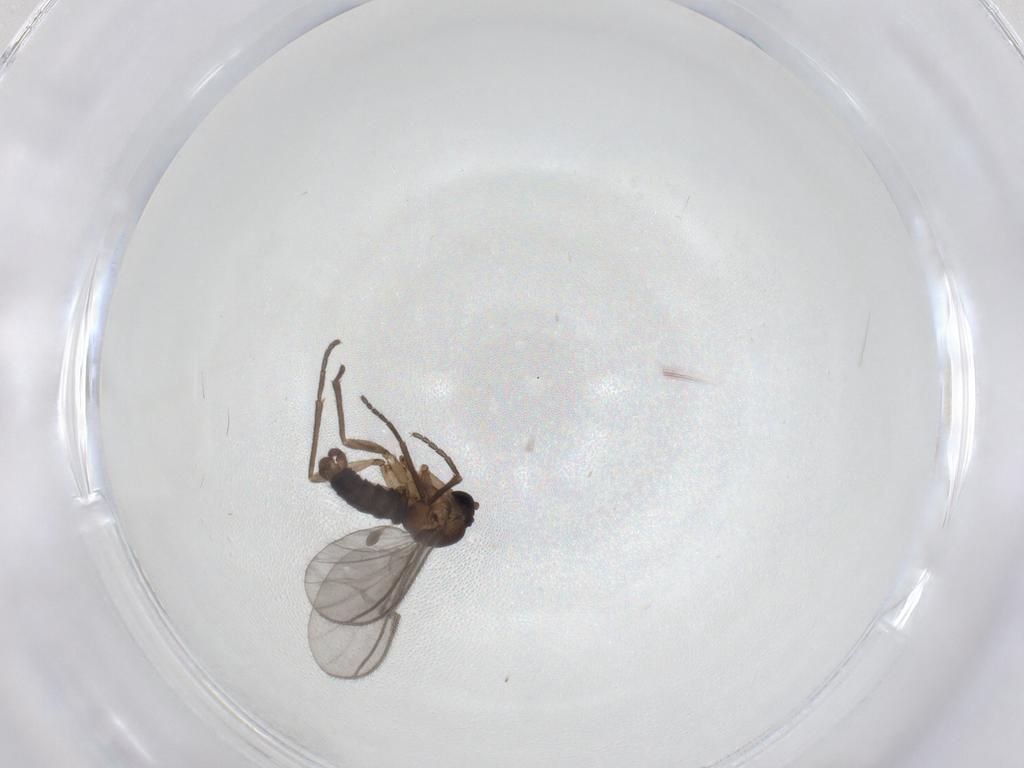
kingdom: Animalia
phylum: Arthropoda
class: Insecta
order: Diptera
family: Sciaridae
